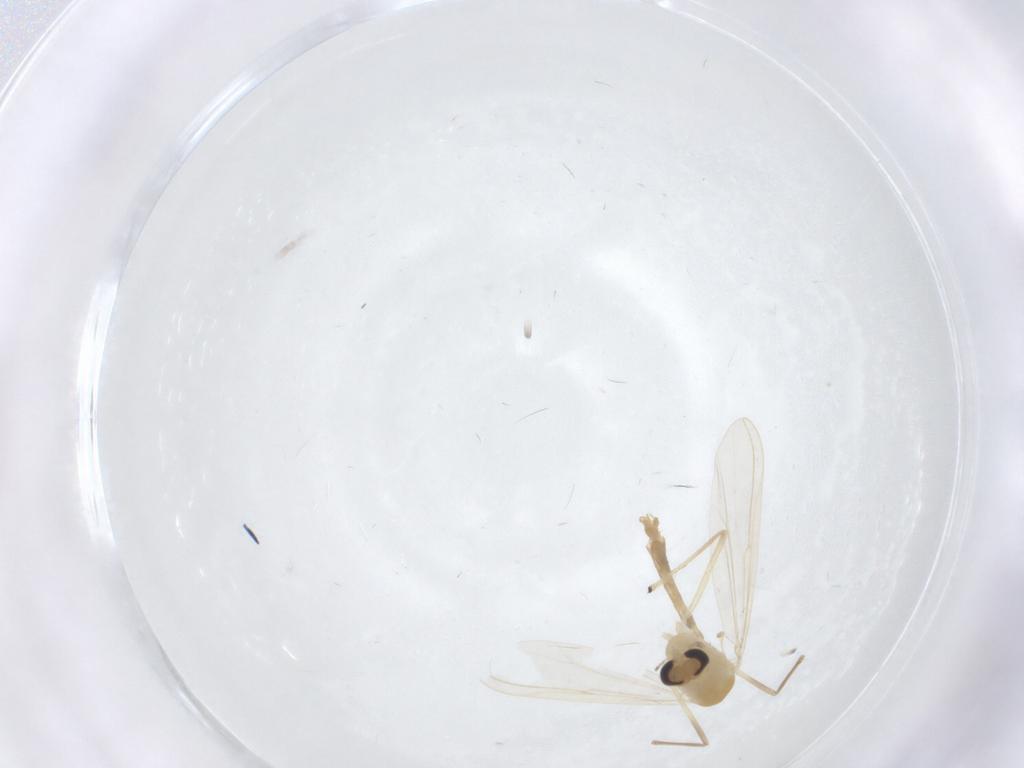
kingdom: Animalia
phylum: Arthropoda
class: Insecta
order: Diptera
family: Chironomidae
